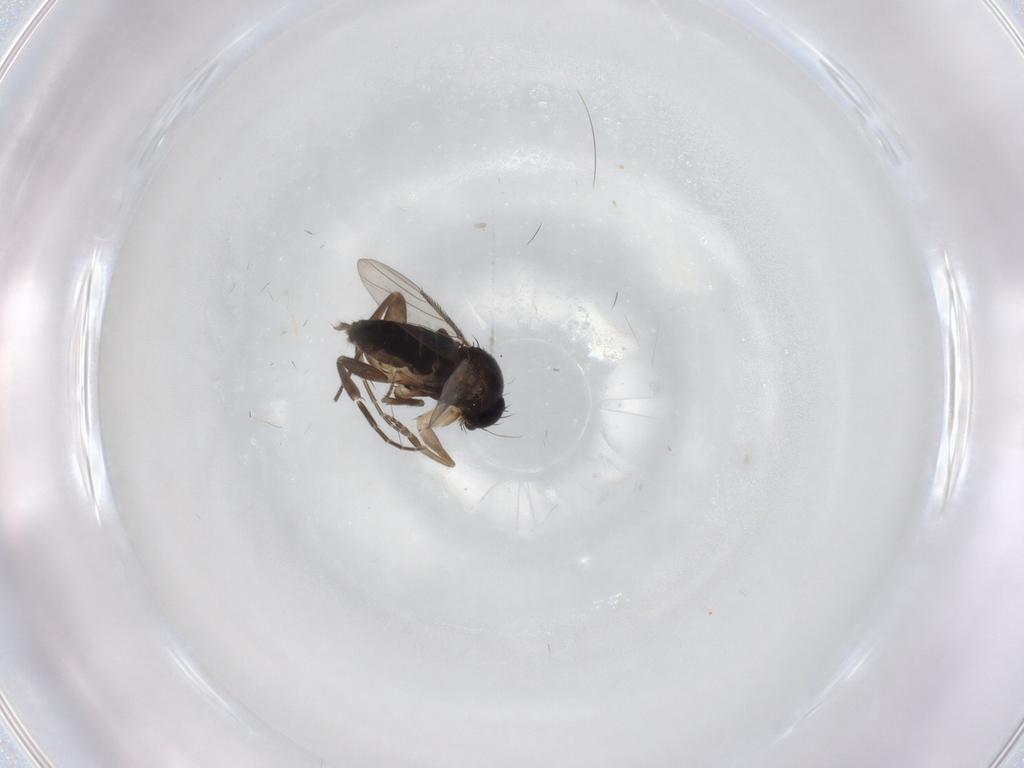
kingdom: Animalia
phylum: Arthropoda
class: Insecta
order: Diptera
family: Phoridae
